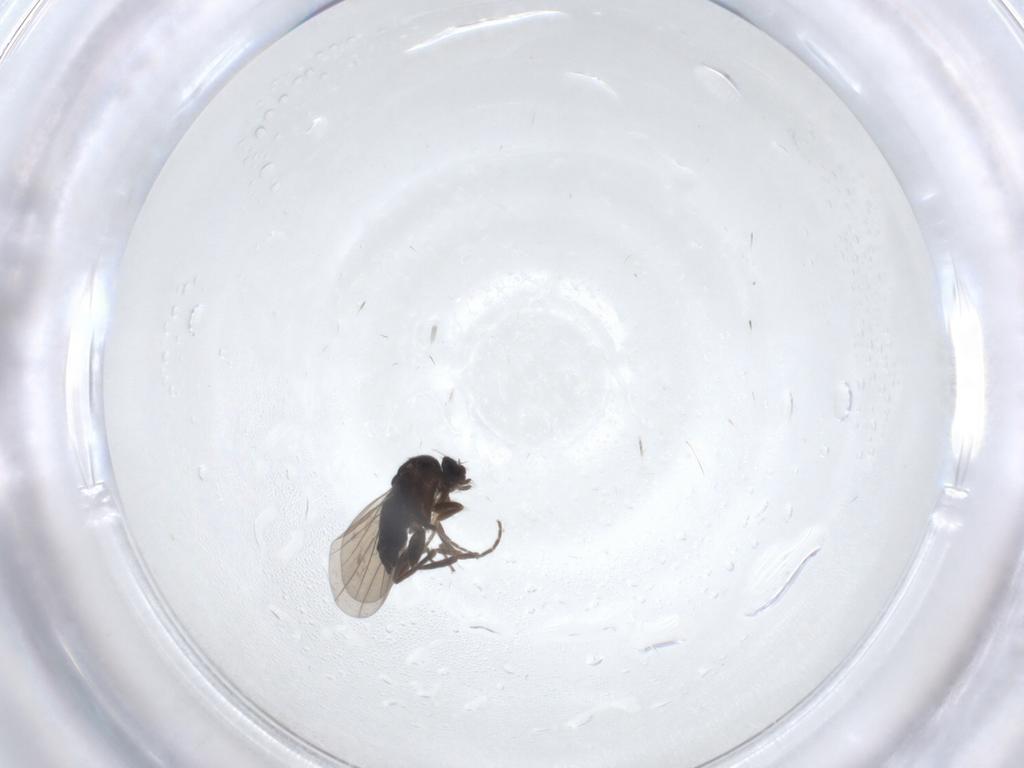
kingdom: Animalia
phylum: Arthropoda
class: Insecta
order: Diptera
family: Phoridae
